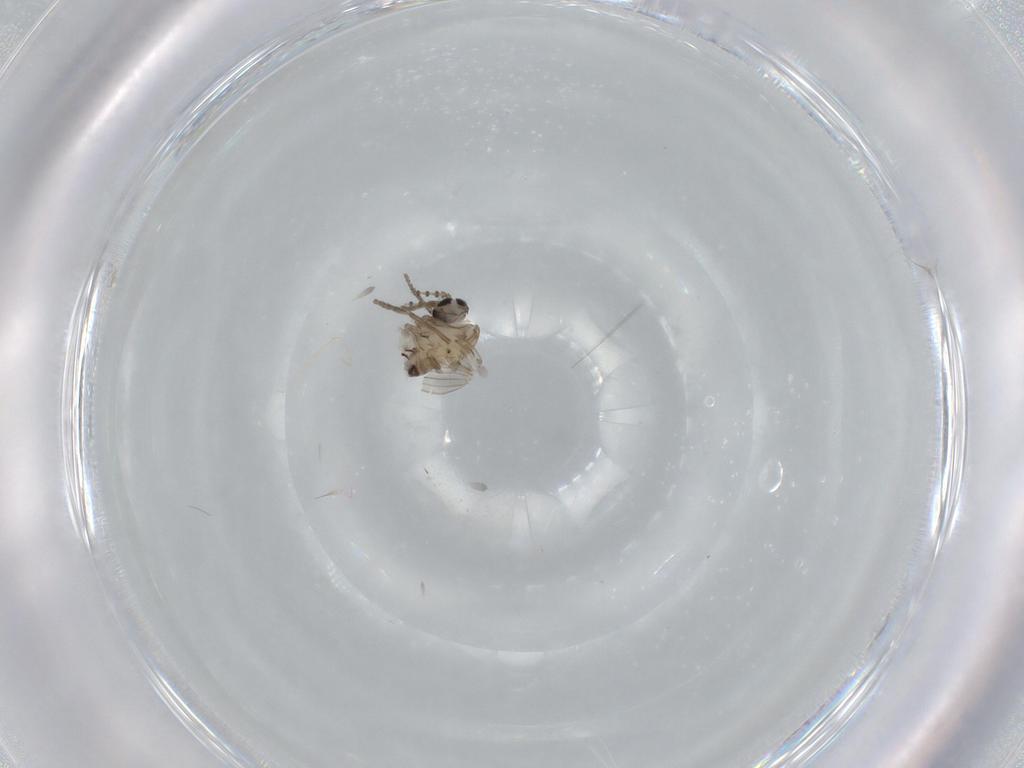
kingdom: Animalia
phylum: Arthropoda
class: Insecta
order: Diptera
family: Psychodidae
